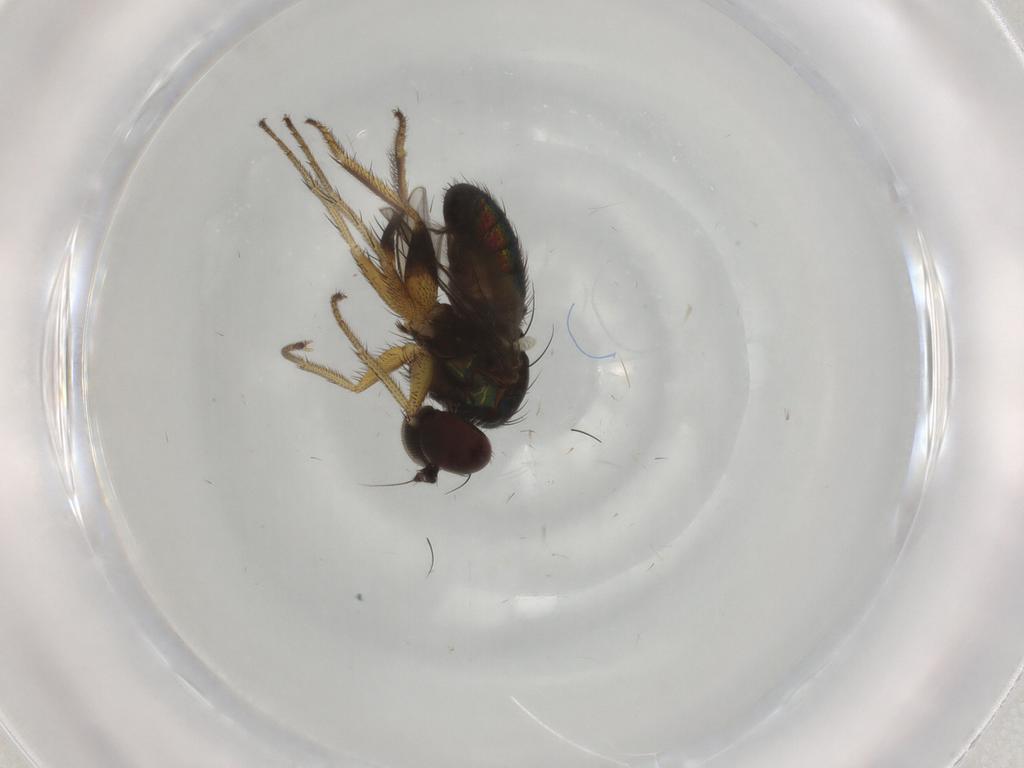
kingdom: Animalia
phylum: Arthropoda
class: Insecta
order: Diptera
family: Dolichopodidae
